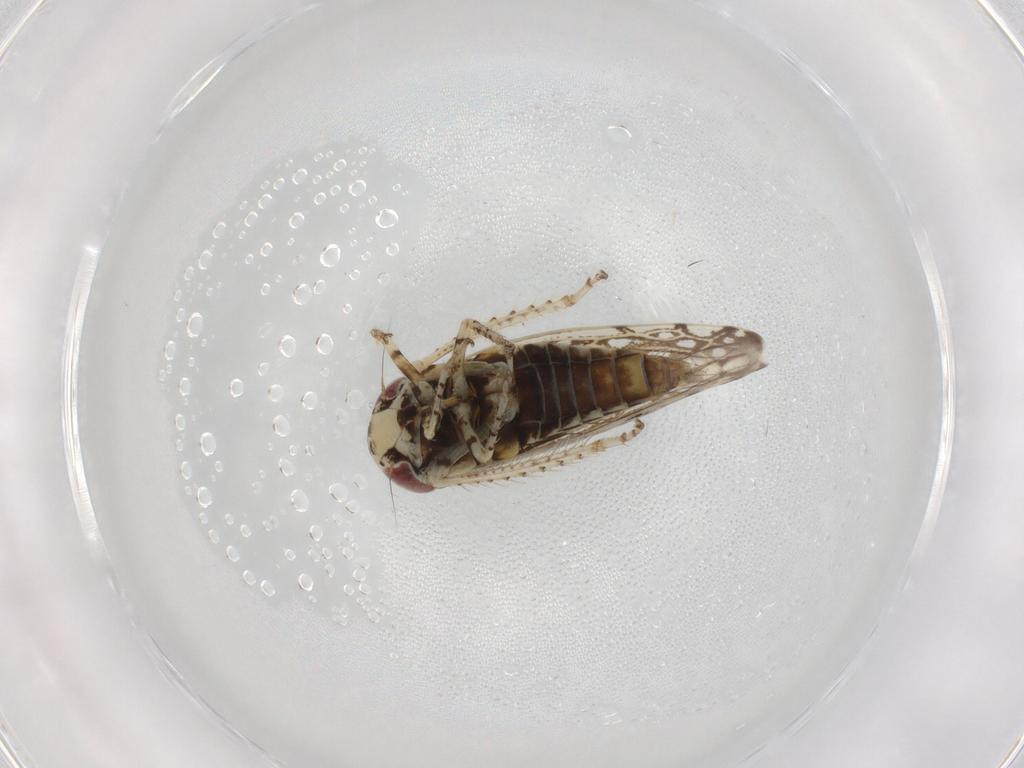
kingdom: Animalia
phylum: Arthropoda
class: Insecta
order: Hemiptera
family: Cicadellidae
